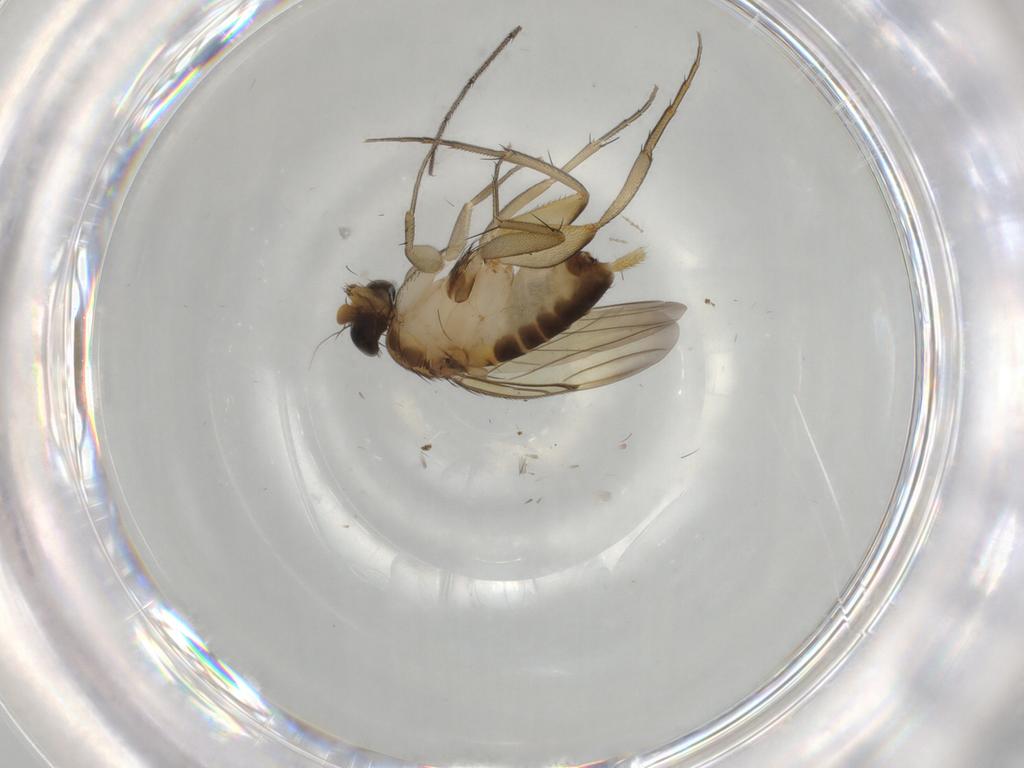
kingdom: Animalia
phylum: Arthropoda
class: Insecta
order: Diptera
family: Phoridae
